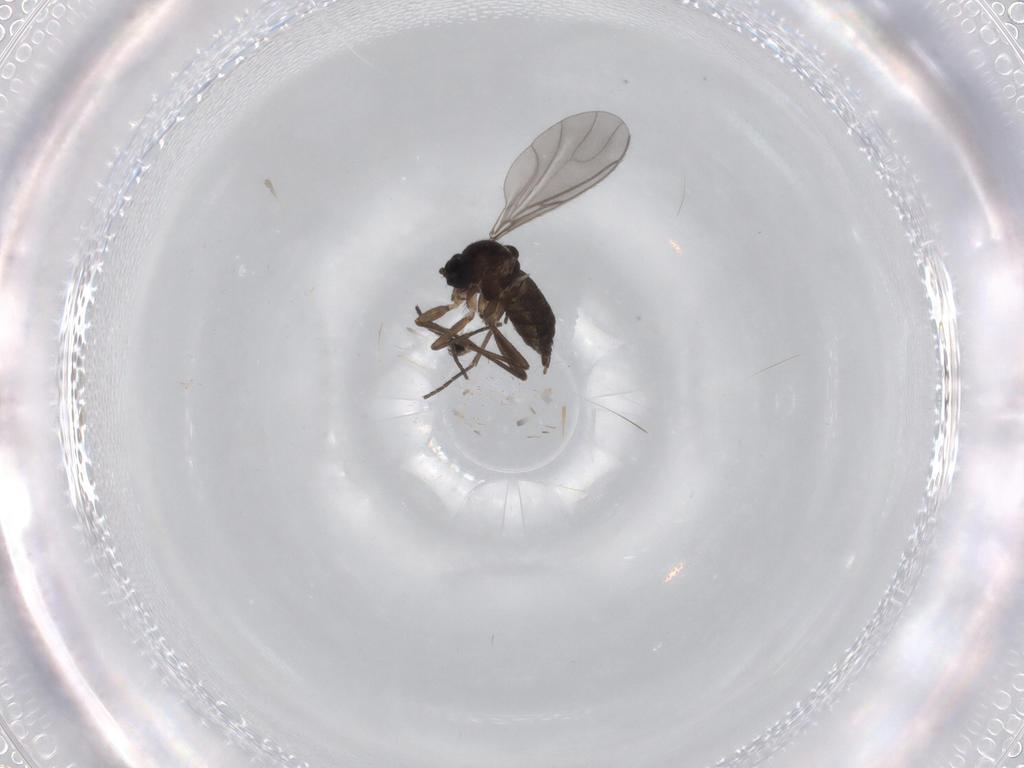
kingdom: Animalia
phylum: Arthropoda
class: Insecta
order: Diptera
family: Sciaridae
